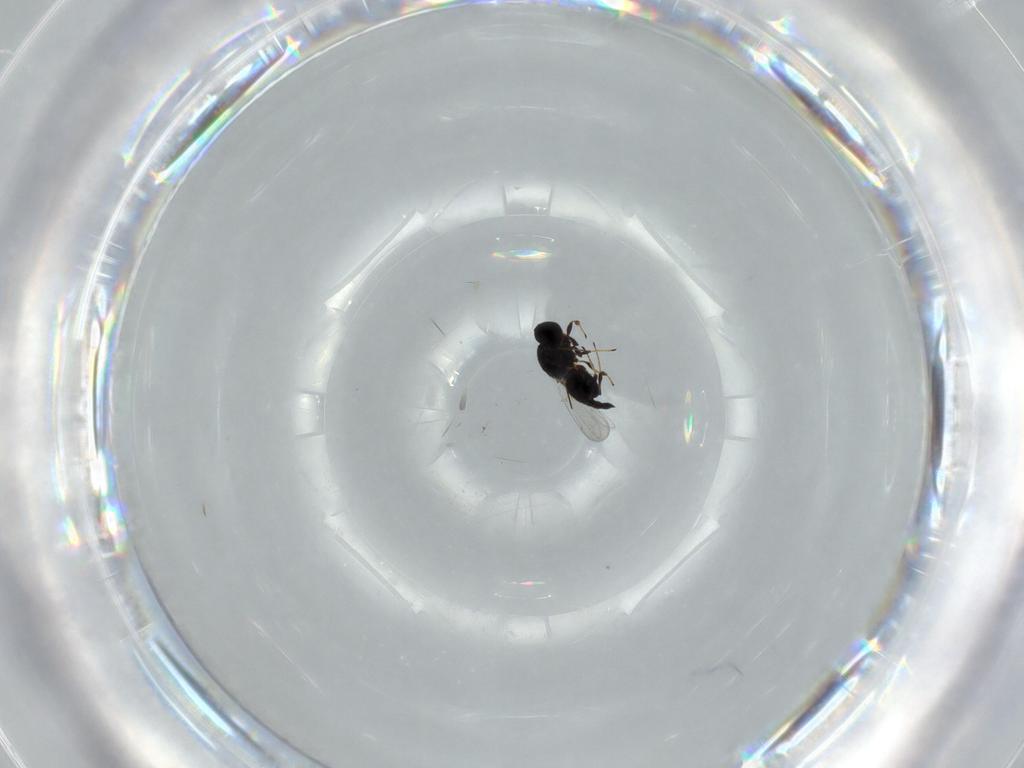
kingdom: Animalia
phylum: Arthropoda
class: Insecta
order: Hymenoptera
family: Platygastridae
